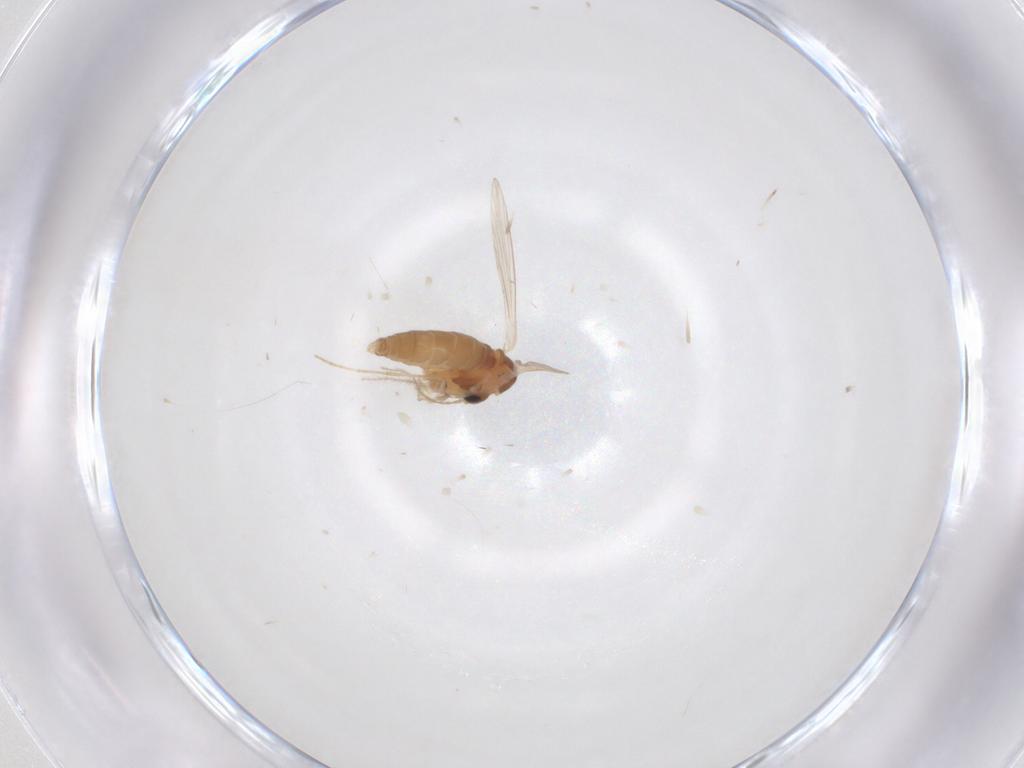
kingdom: Animalia
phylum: Arthropoda
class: Insecta
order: Diptera
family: Psychodidae
